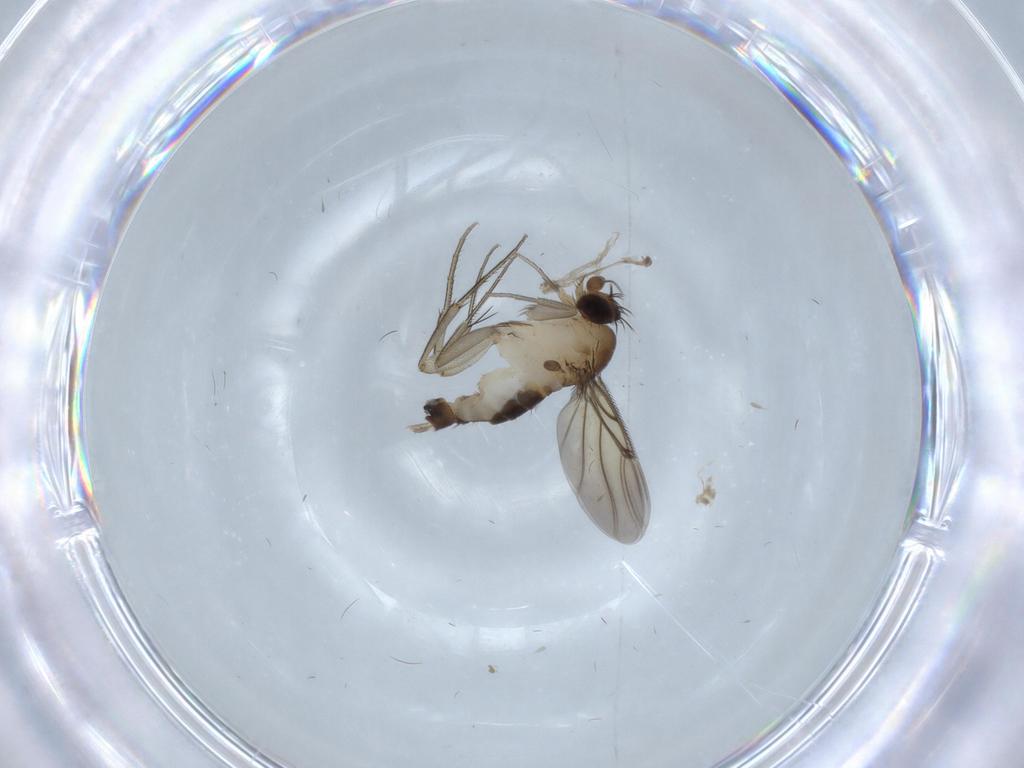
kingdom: Animalia
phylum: Arthropoda
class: Insecta
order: Diptera
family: Phoridae
